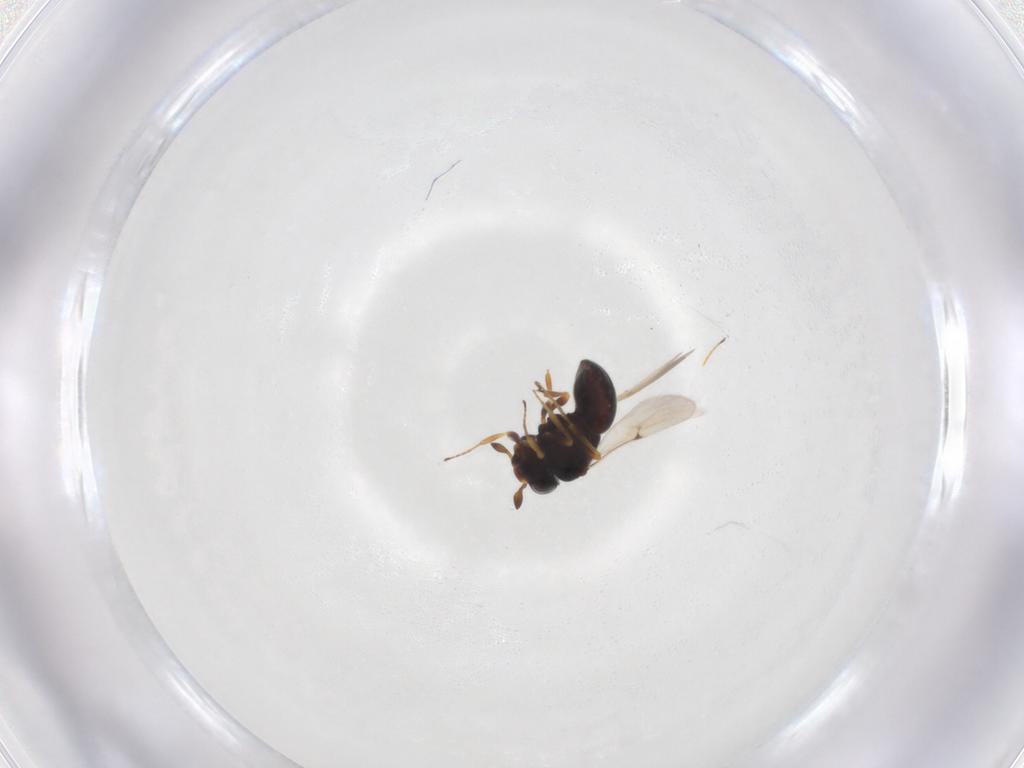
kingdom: Animalia
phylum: Arthropoda
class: Insecta
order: Hymenoptera
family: Scelionidae
